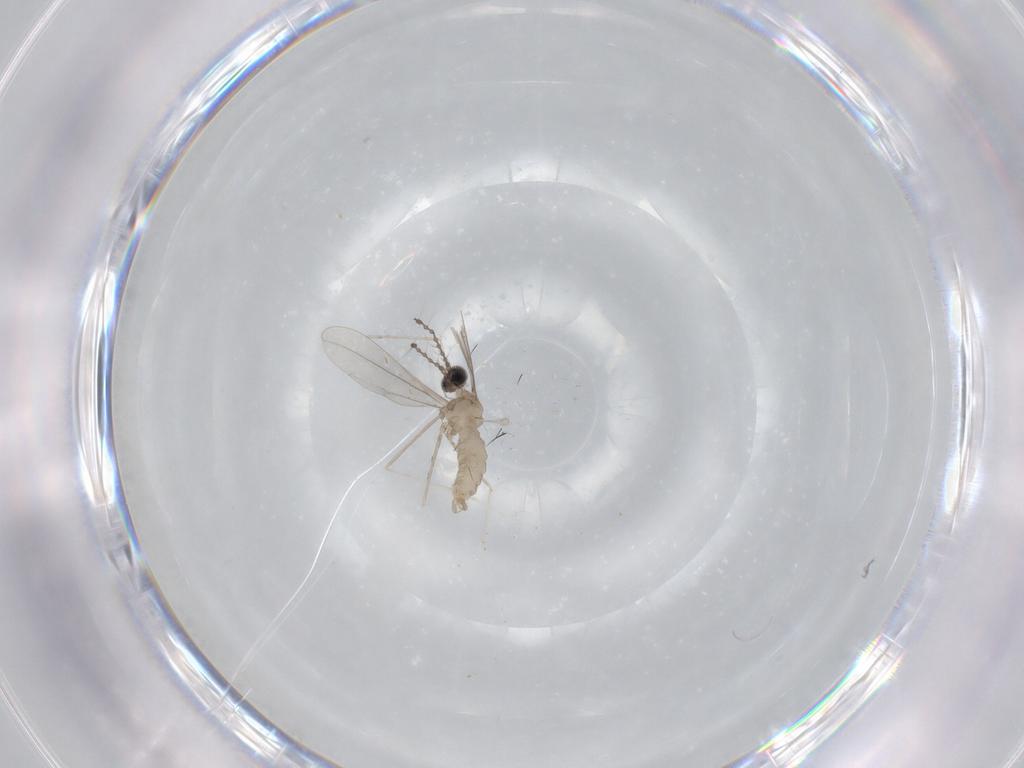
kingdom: Animalia
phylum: Arthropoda
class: Insecta
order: Diptera
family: Cecidomyiidae
